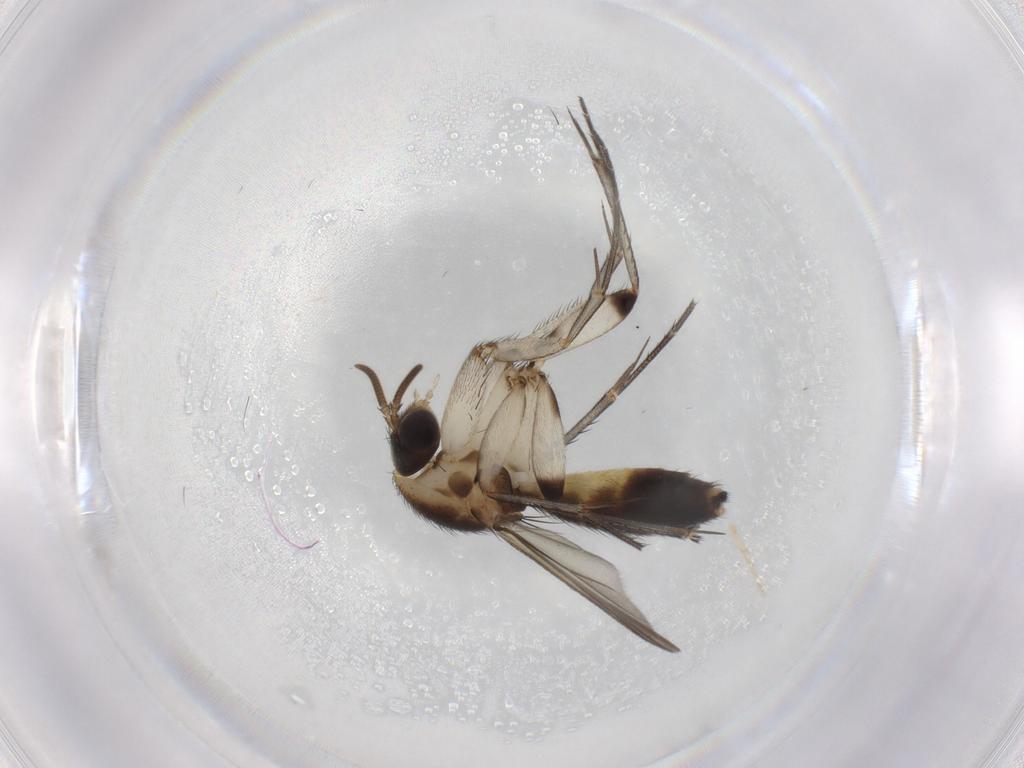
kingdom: Animalia
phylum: Arthropoda
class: Insecta
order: Diptera
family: Mycetophilidae
